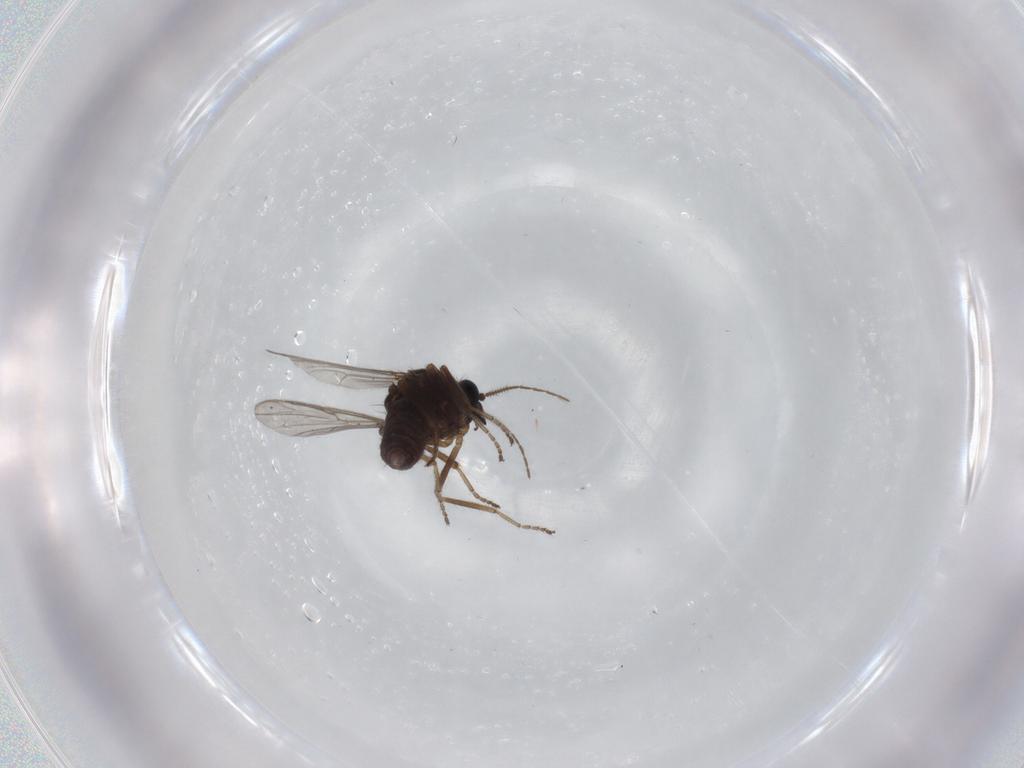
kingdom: Animalia
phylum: Arthropoda
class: Insecta
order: Diptera
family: Ceratopogonidae
